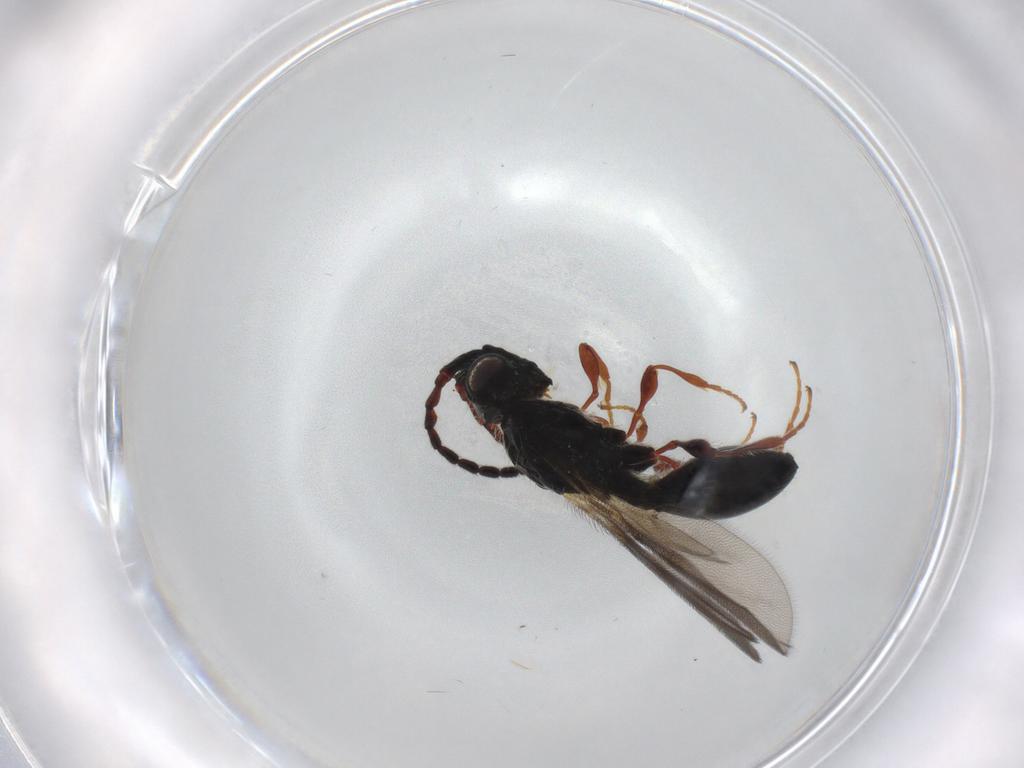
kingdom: Animalia
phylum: Arthropoda
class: Insecta
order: Hymenoptera
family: Diapriidae
